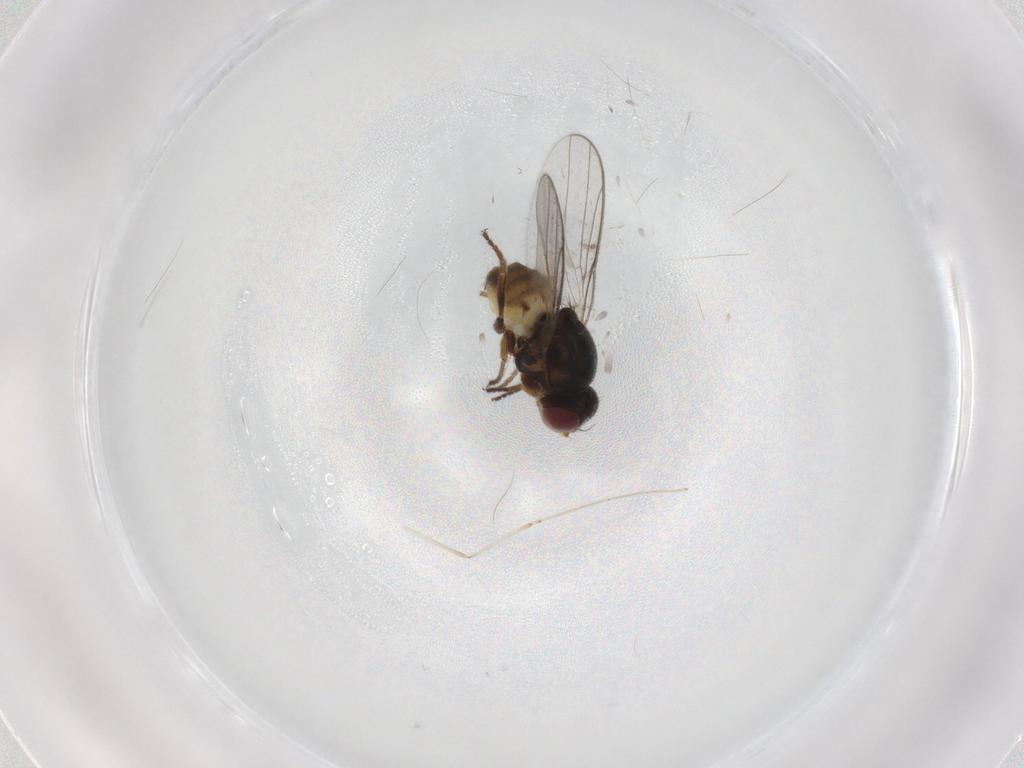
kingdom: Animalia
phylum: Arthropoda
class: Insecta
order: Diptera
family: Chloropidae
